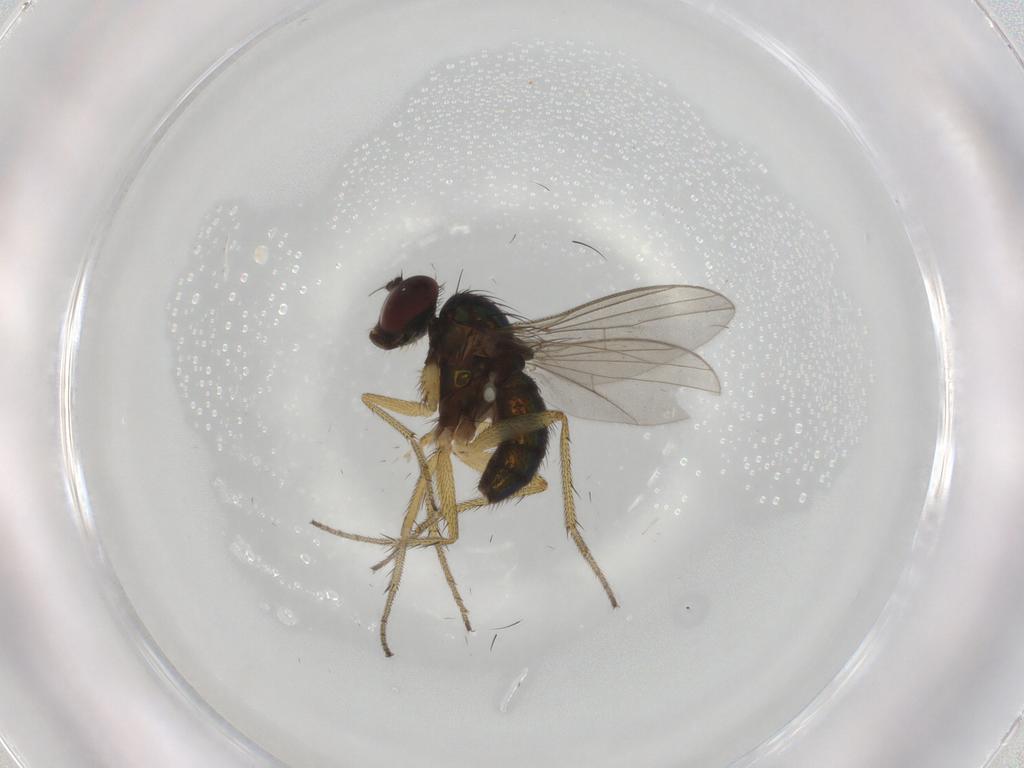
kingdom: Animalia
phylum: Arthropoda
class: Insecta
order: Diptera
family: Dolichopodidae
